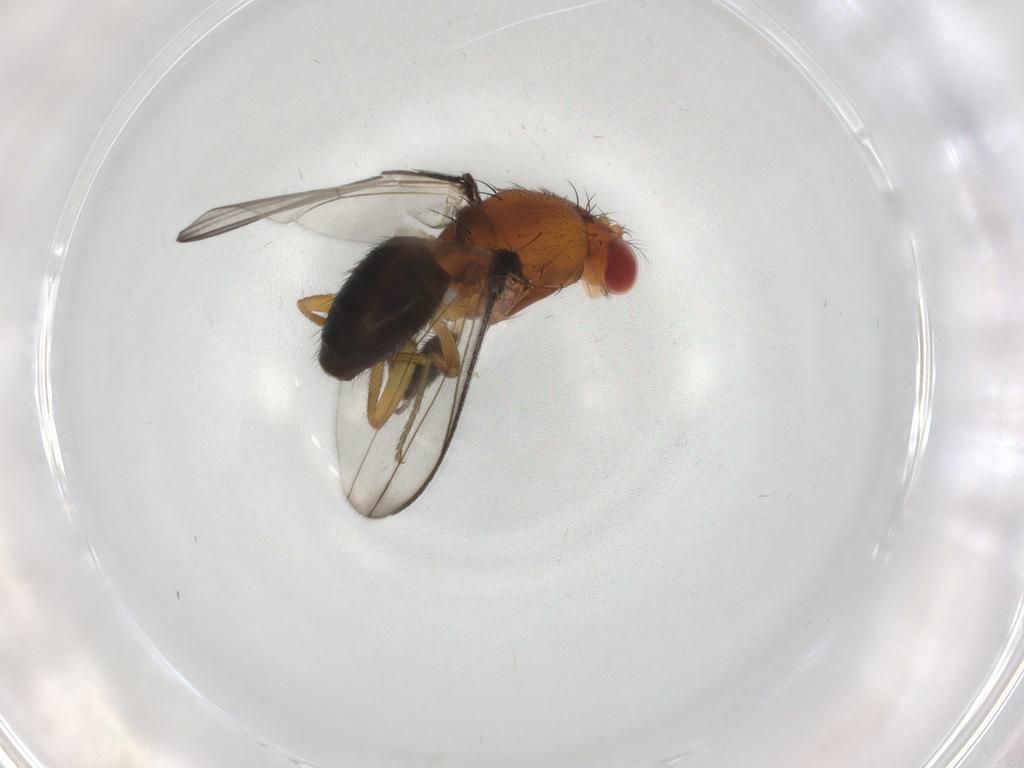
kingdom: Animalia
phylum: Arthropoda
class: Insecta
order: Diptera
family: Drosophilidae
